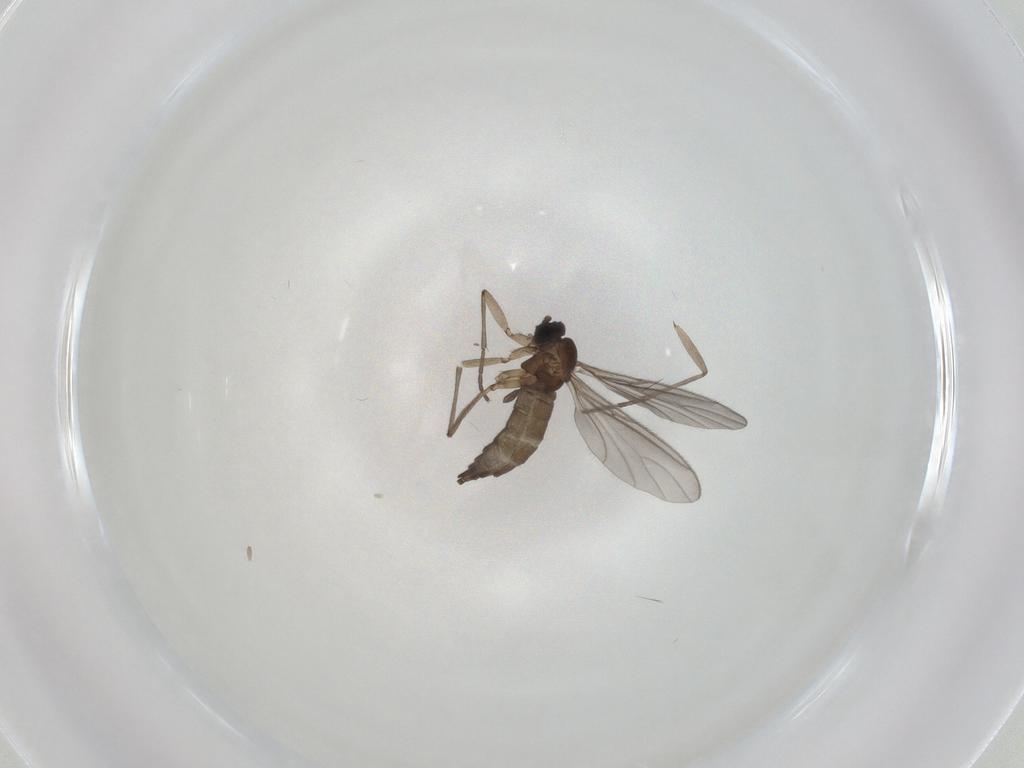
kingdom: Animalia
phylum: Arthropoda
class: Insecta
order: Diptera
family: Sciaridae
